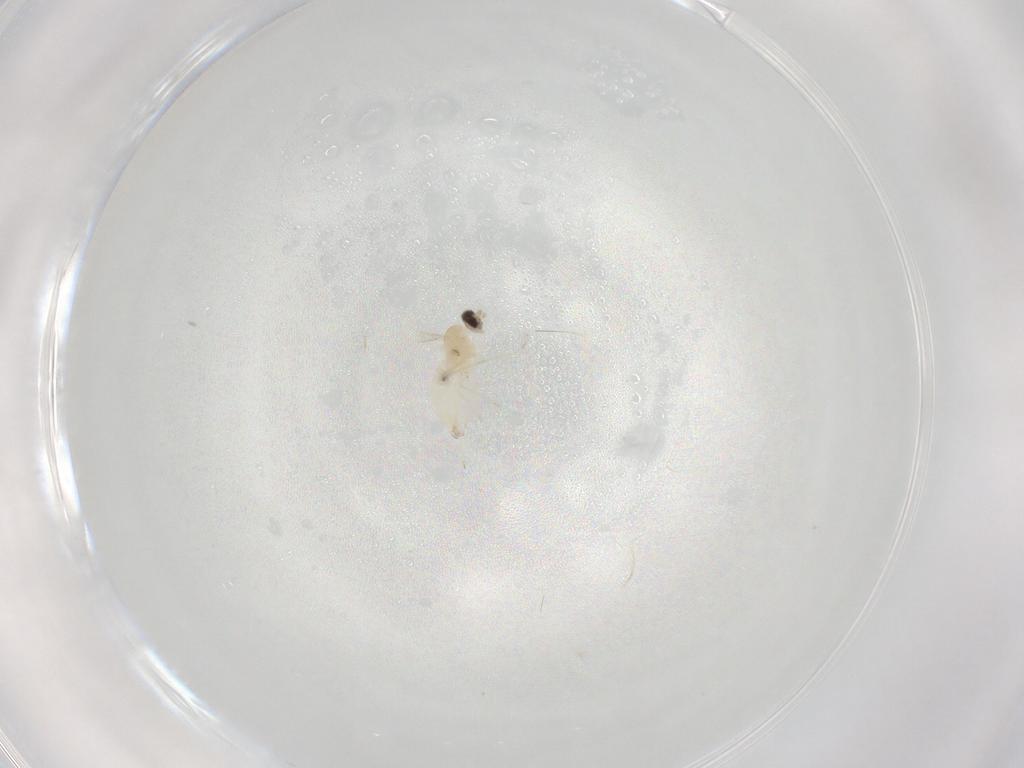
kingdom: Animalia
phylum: Arthropoda
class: Insecta
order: Diptera
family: Cecidomyiidae
